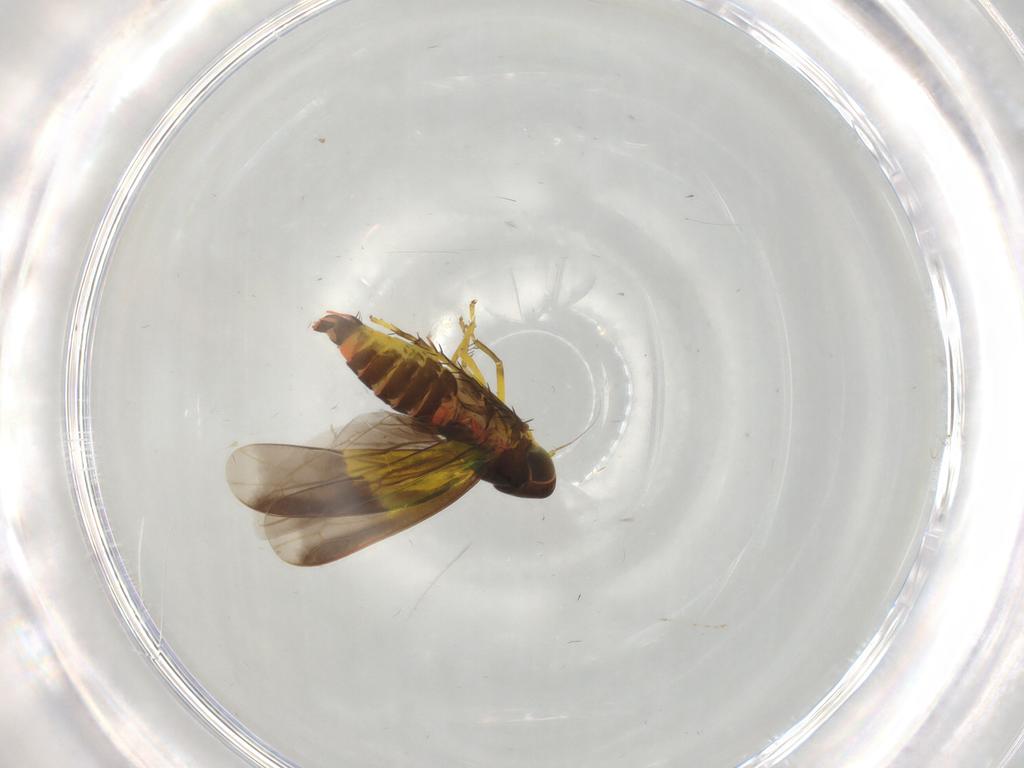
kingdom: Animalia
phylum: Arthropoda
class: Insecta
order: Hemiptera
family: Cicadellidae
